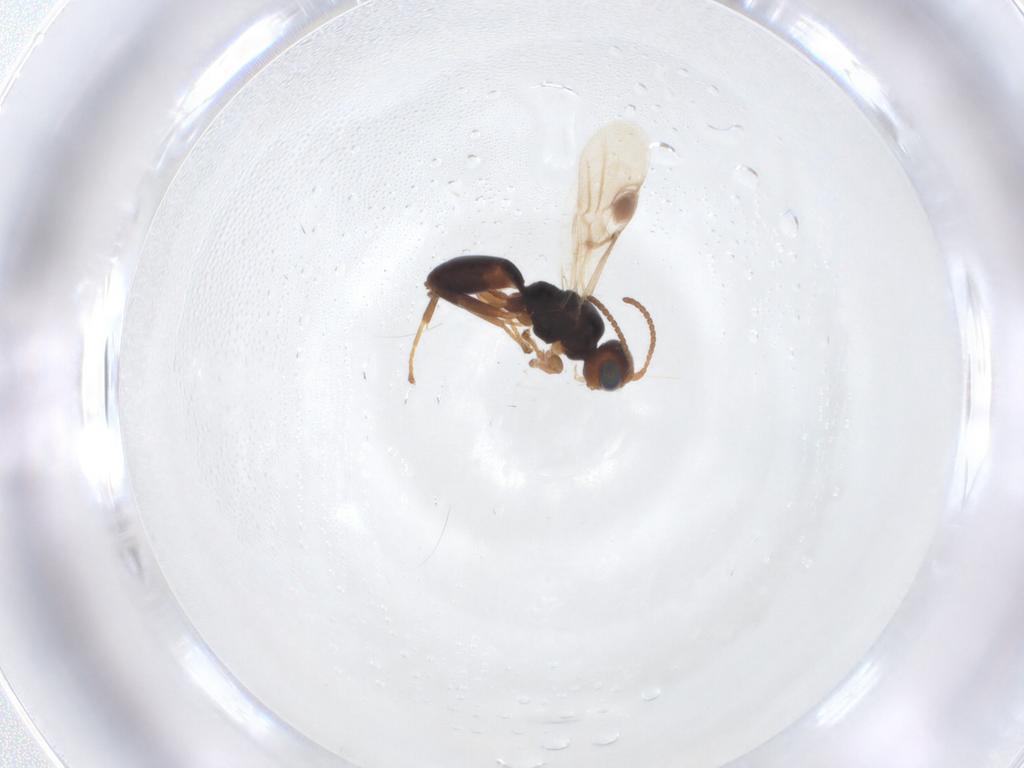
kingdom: Animalia
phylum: Arthropoda
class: Insecta
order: Hymenoptera
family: Braconidae
